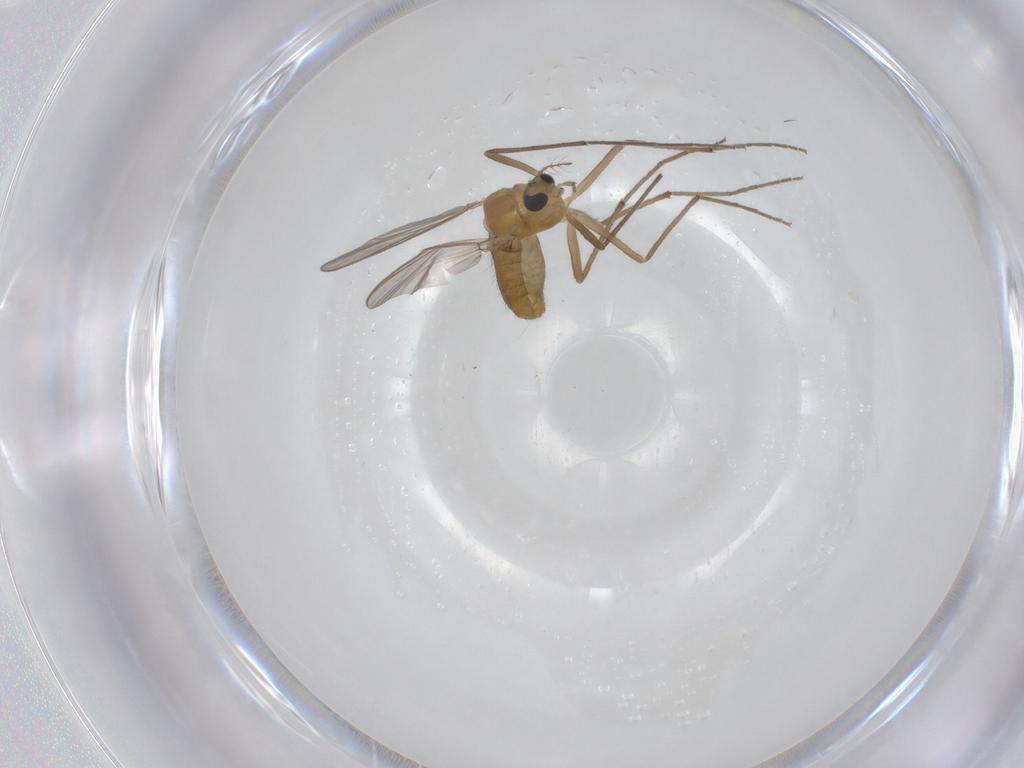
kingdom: Animalia
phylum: Arthropoda
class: Insecta
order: Diptera
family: Chironomidae
